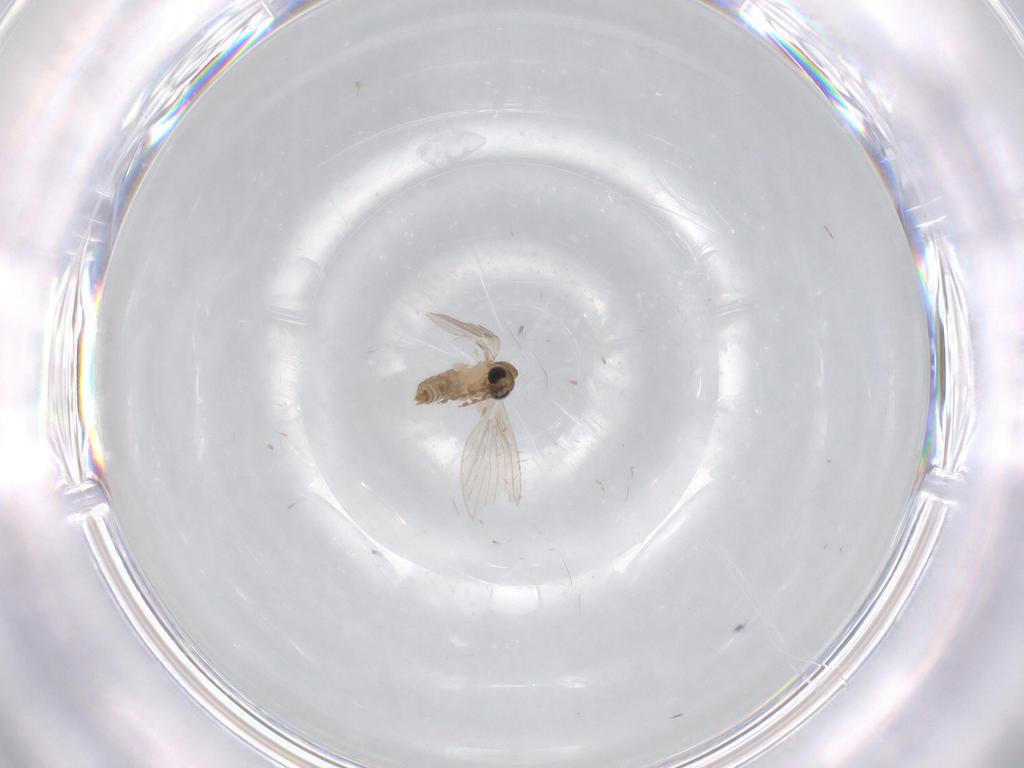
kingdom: Animalia
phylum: Arthropoda
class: Insecta
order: Diptera
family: Psychodidae
